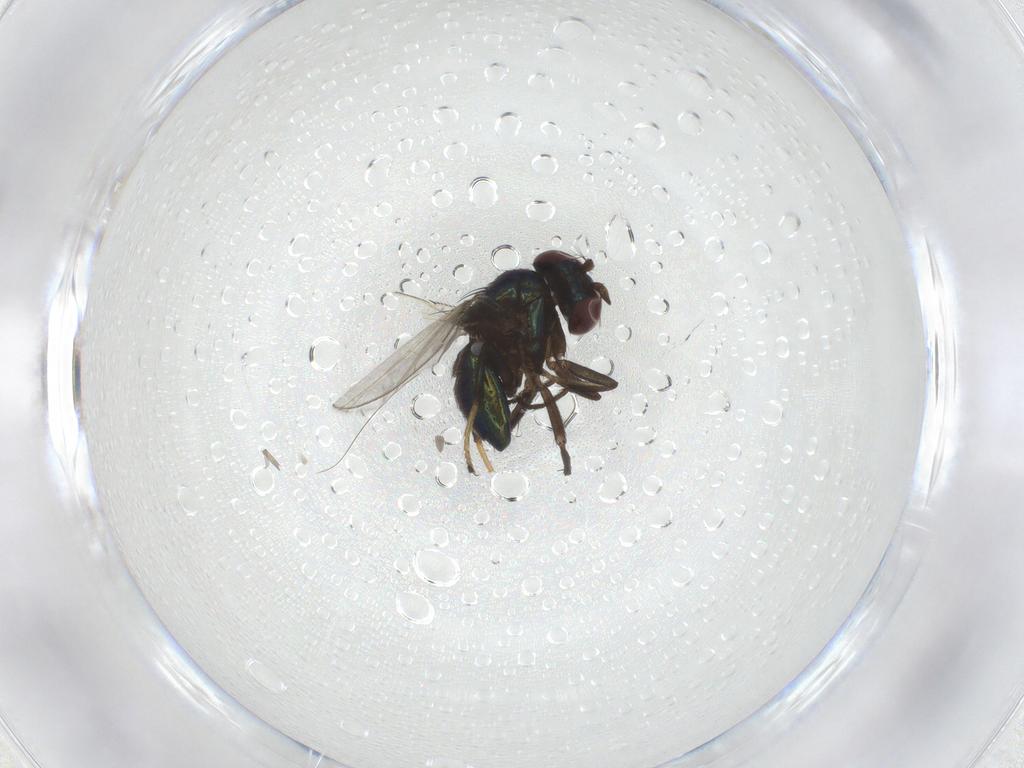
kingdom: Animalia
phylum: Arthropoda
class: Insecta
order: Diptera
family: Ephydridae
